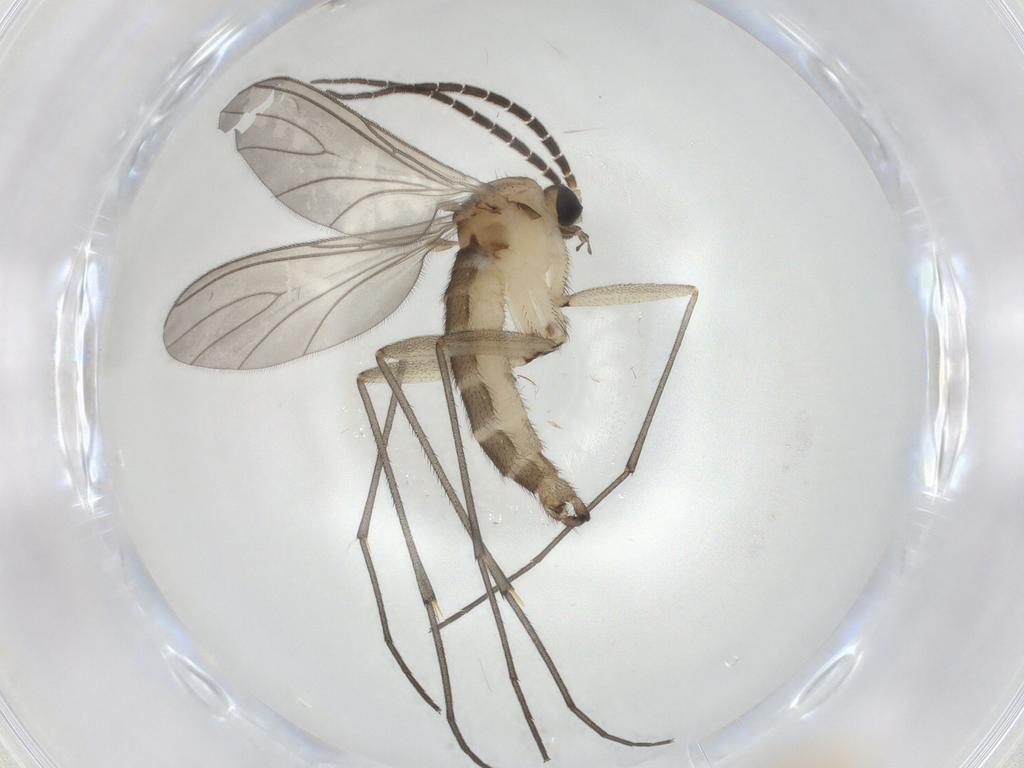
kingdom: Animalia
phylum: Arthropoda
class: Insecta
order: Diptera
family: Sciaridae
